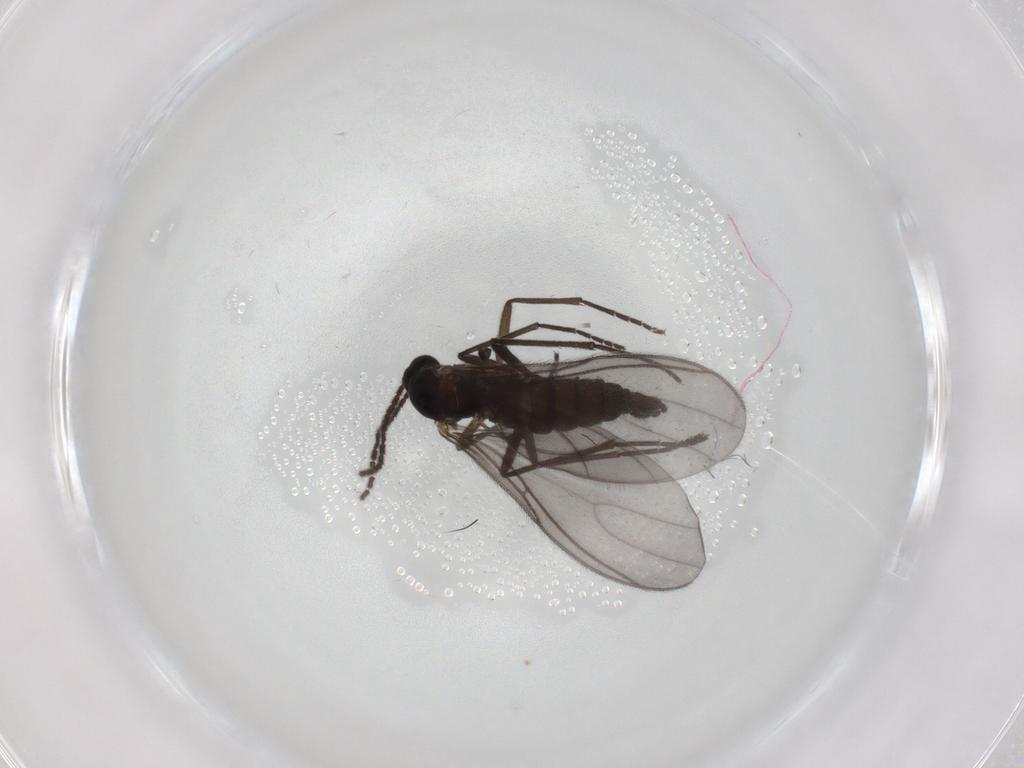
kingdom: Animalia
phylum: Arthropoda
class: Insecta
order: Diptera
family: Sciaridae
